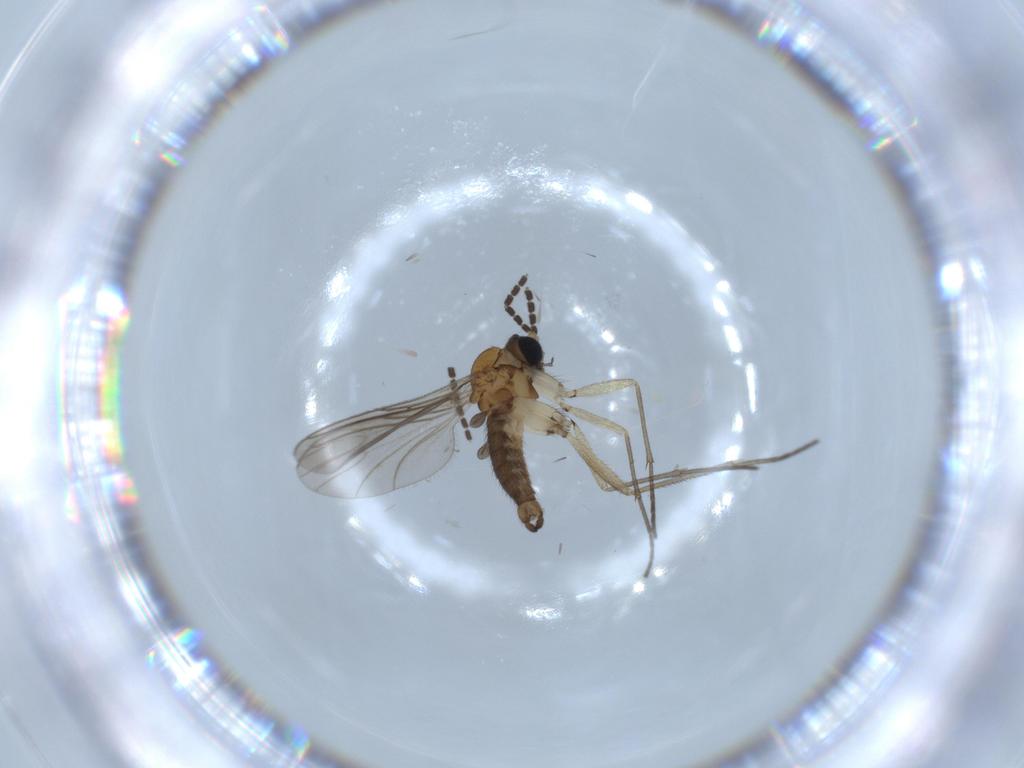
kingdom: Animalia
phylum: Arthropoda
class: Insecta
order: Diptera
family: Sciaridae
